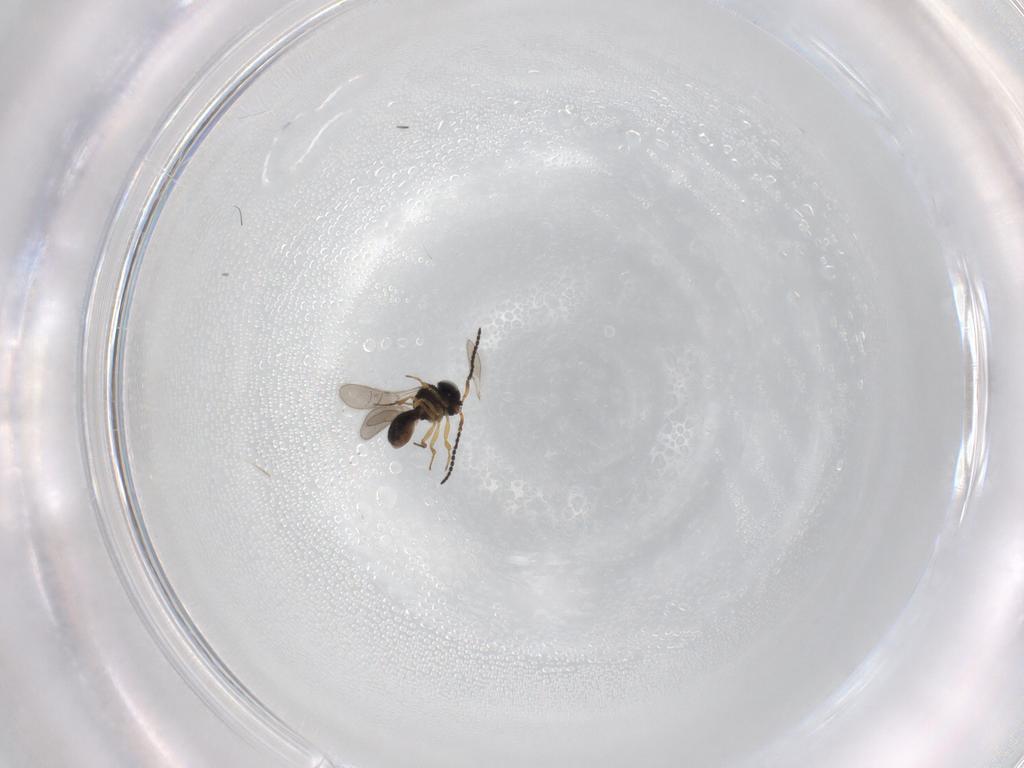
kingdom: Animalia
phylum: Arthropoda
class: Insecta
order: Hymenoptera
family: Scelionidae
